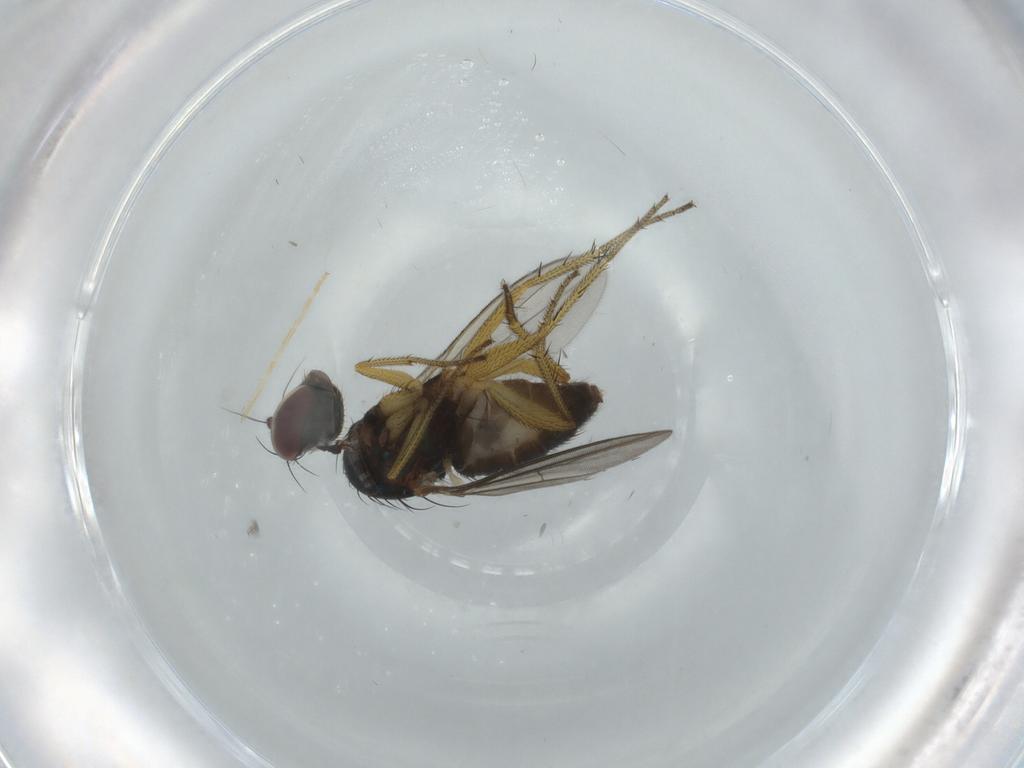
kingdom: Animalia
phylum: Arthropoda
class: Insecta
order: Diptera
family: Dolichopodidae
